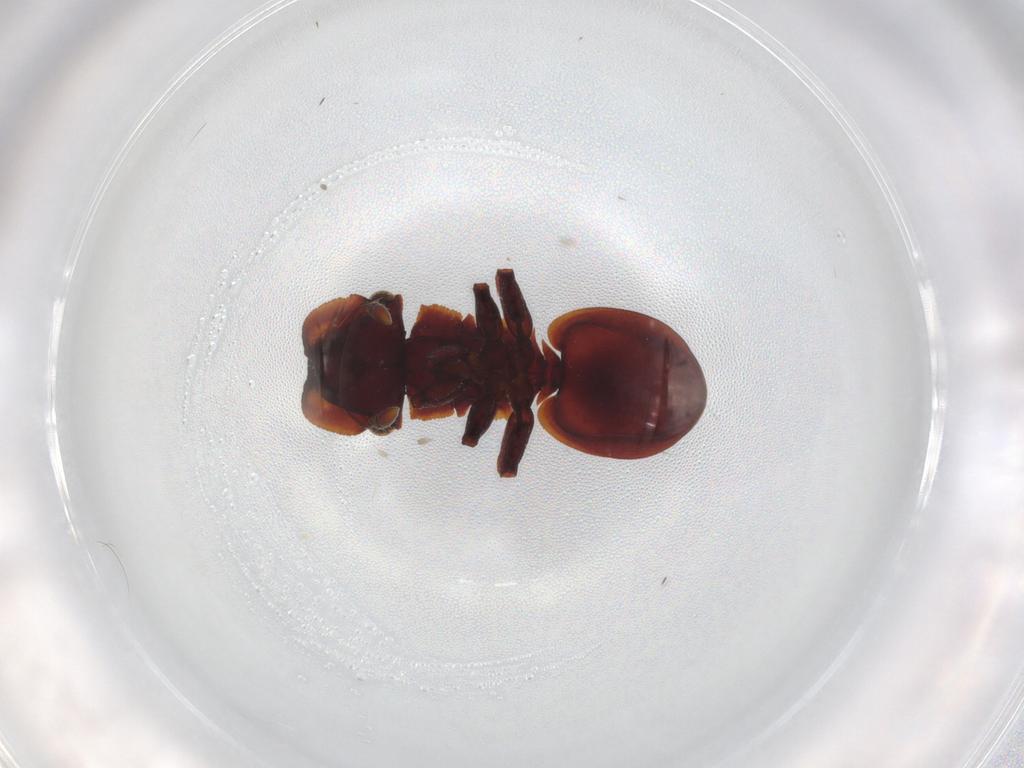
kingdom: Animalia
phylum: Arthropoda
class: Insecta
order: Hymenoptera
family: Formicidae
